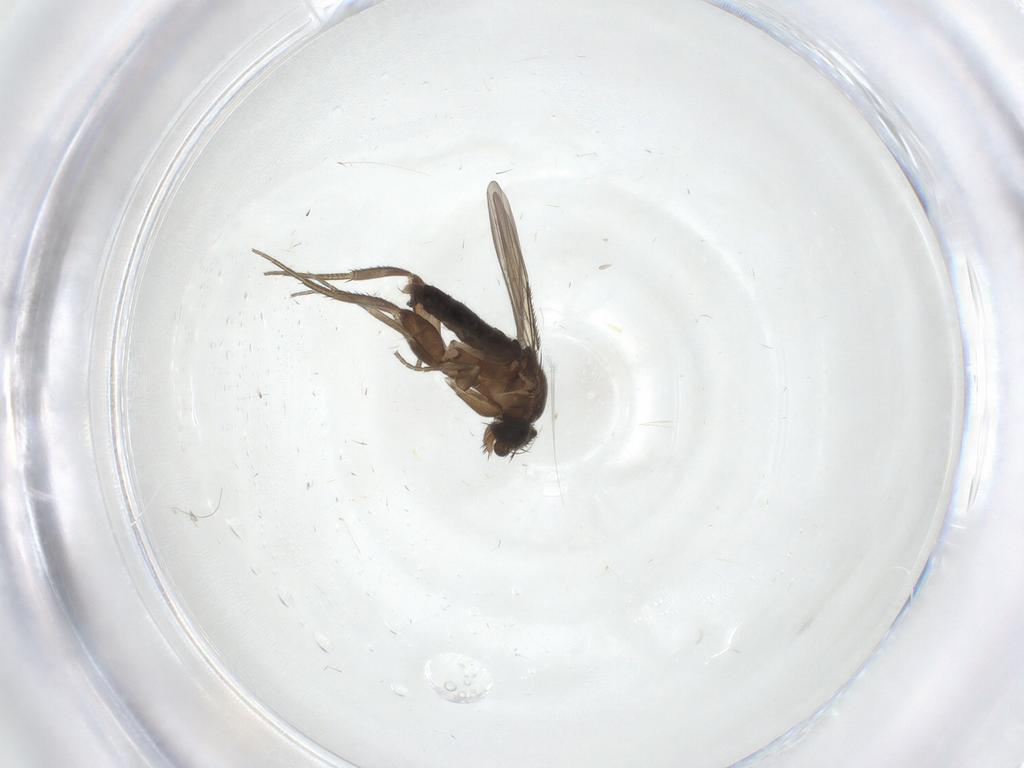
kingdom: Animalia
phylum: Arthropoda
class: Insecta
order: Diptera
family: Phoridae
